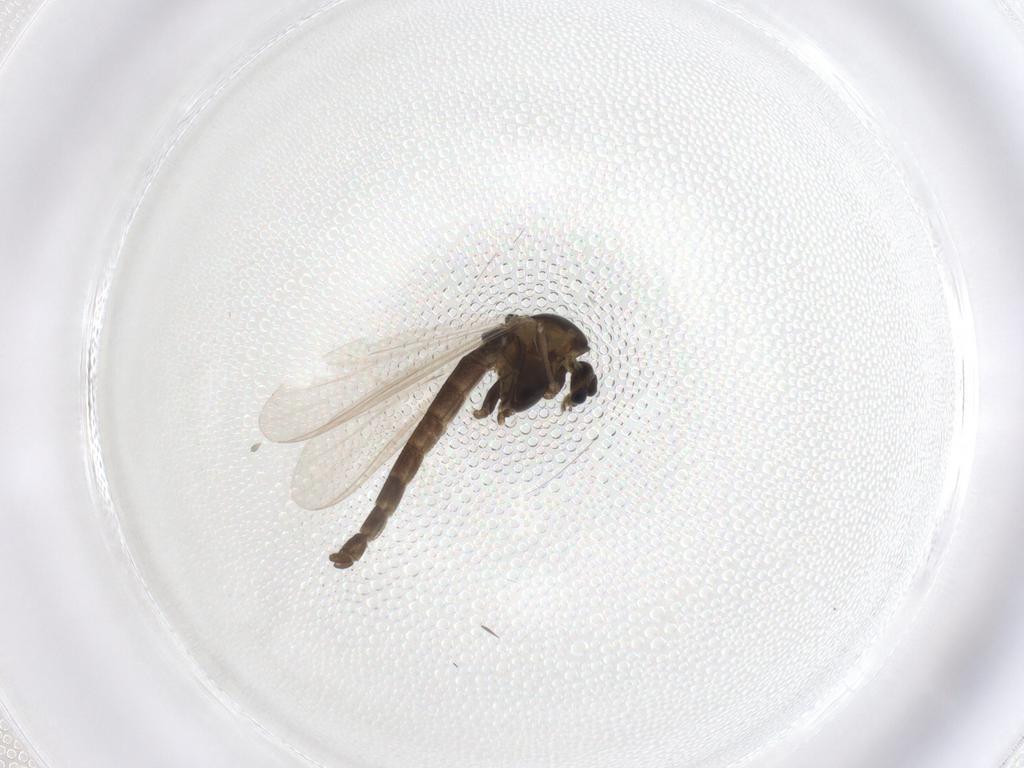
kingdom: Animalia
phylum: Arthropoda
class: Insecta
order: Diptera
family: Chironomidae
